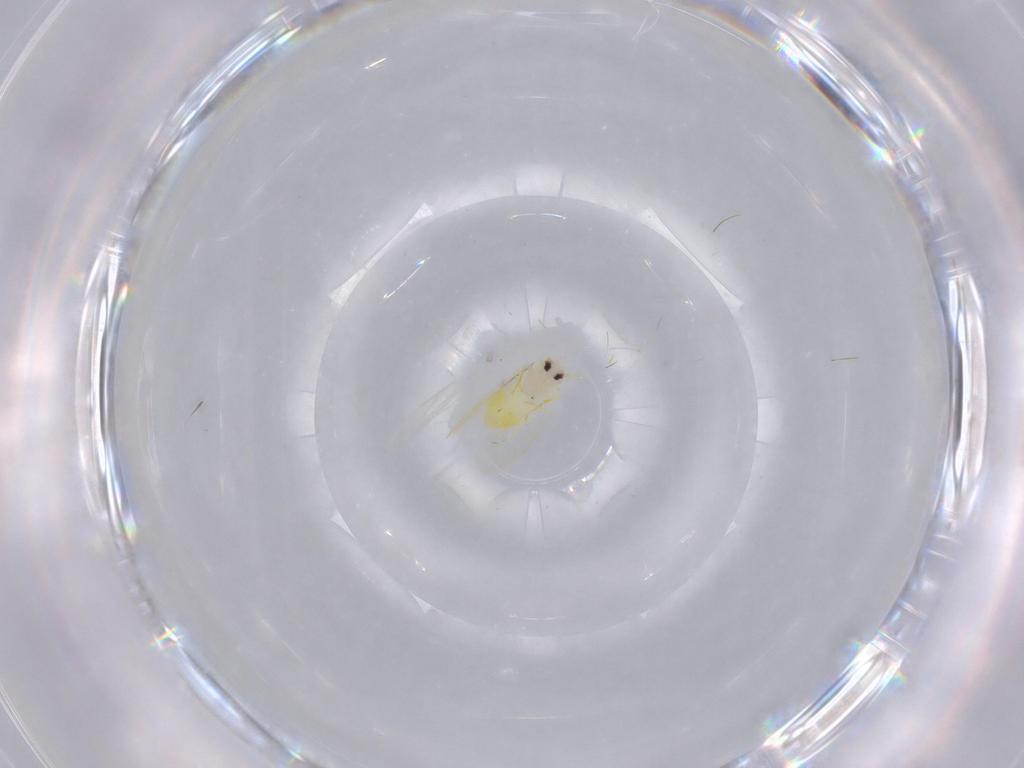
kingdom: Animalia
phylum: Arthropoda
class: Insecta
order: Hemiptera
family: Aleyrodidae
